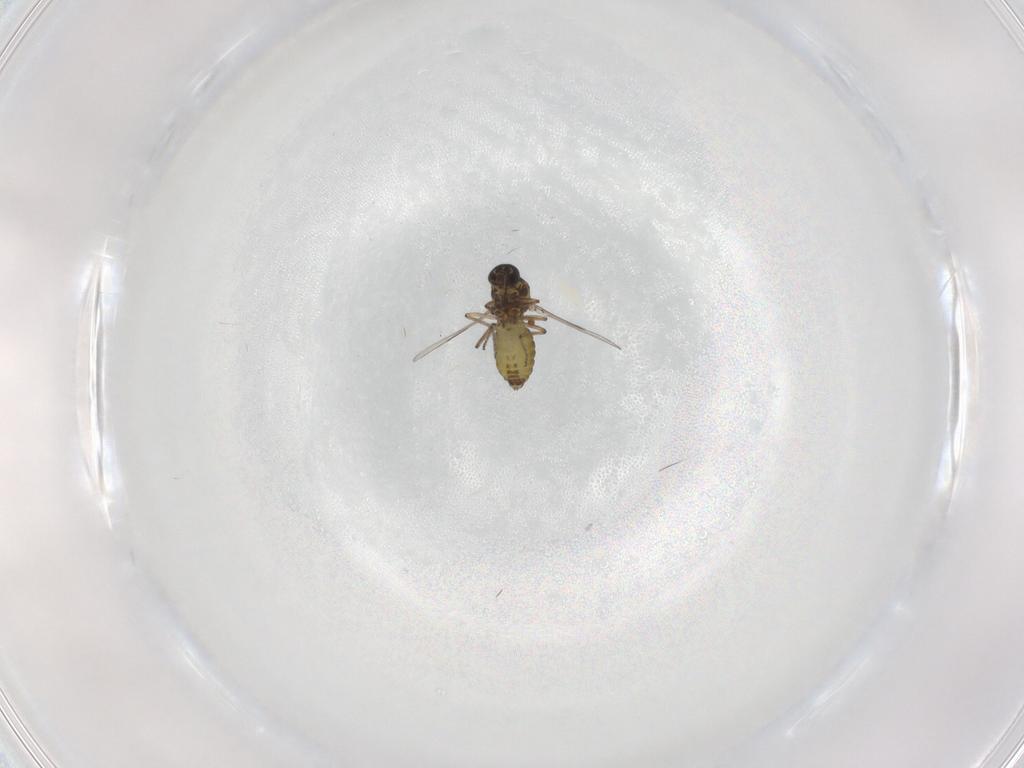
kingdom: Animalia
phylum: Arthropoda
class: Insecta
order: Diptera
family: Ceratopogonidae
